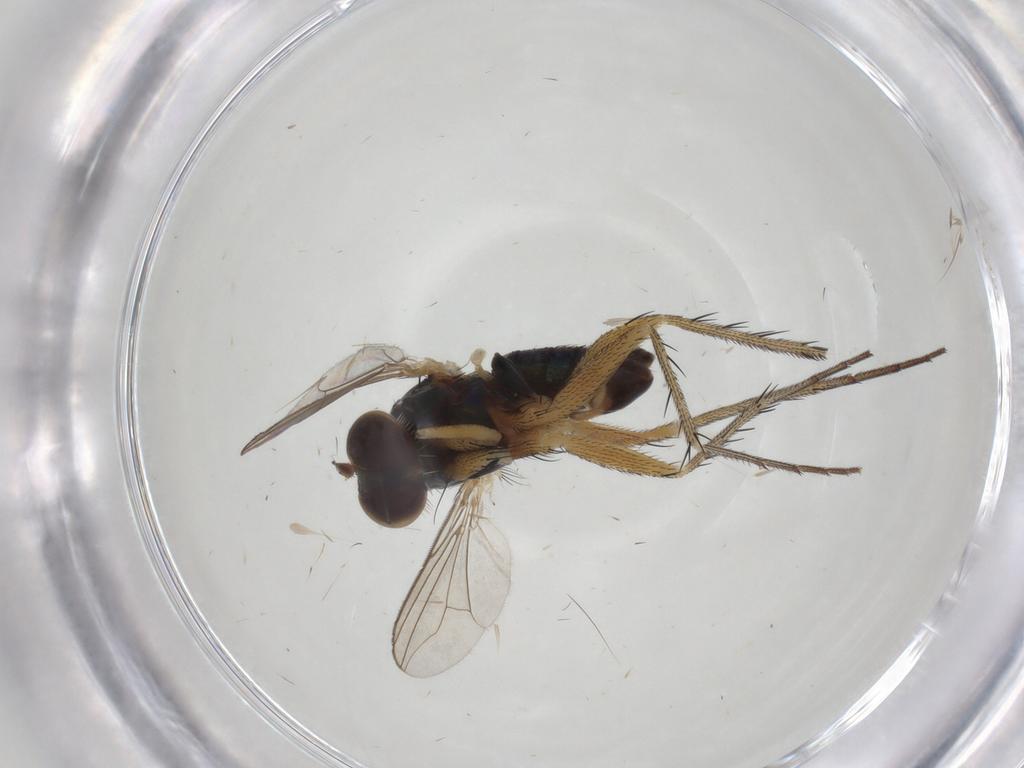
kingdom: Animalia
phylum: Arthropoda
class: Insecta
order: Diptera
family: Dolichopodidae
